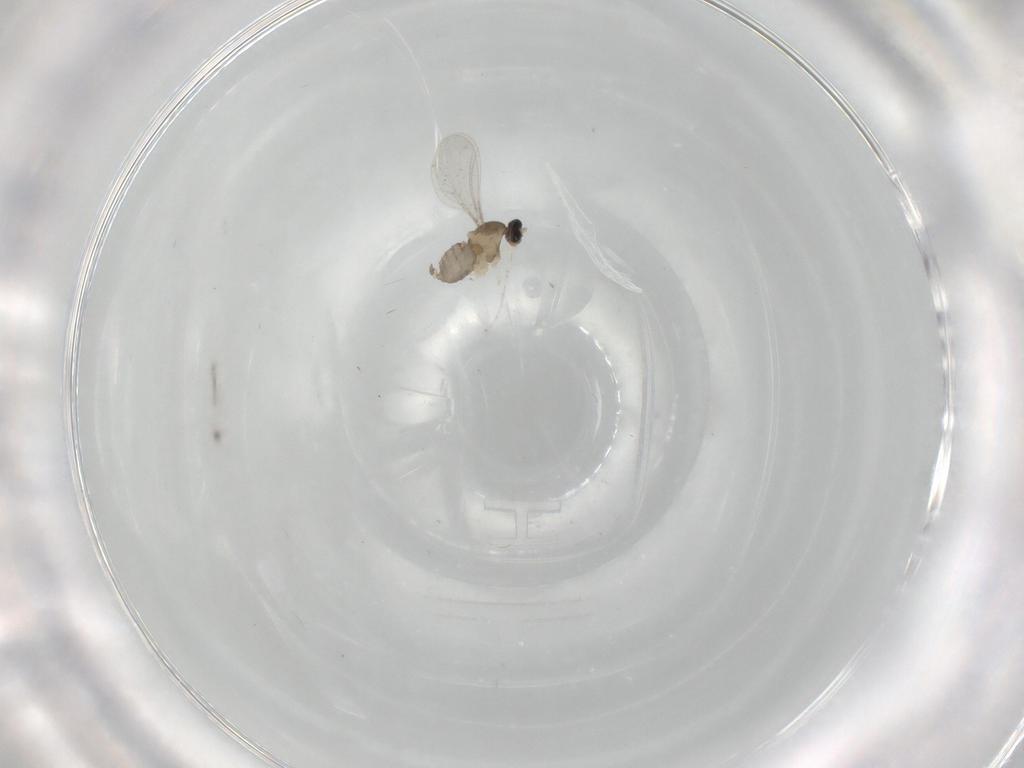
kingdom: Animalia
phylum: Arthropoda
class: Insecta
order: Diptera
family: Cecidomyiidae
